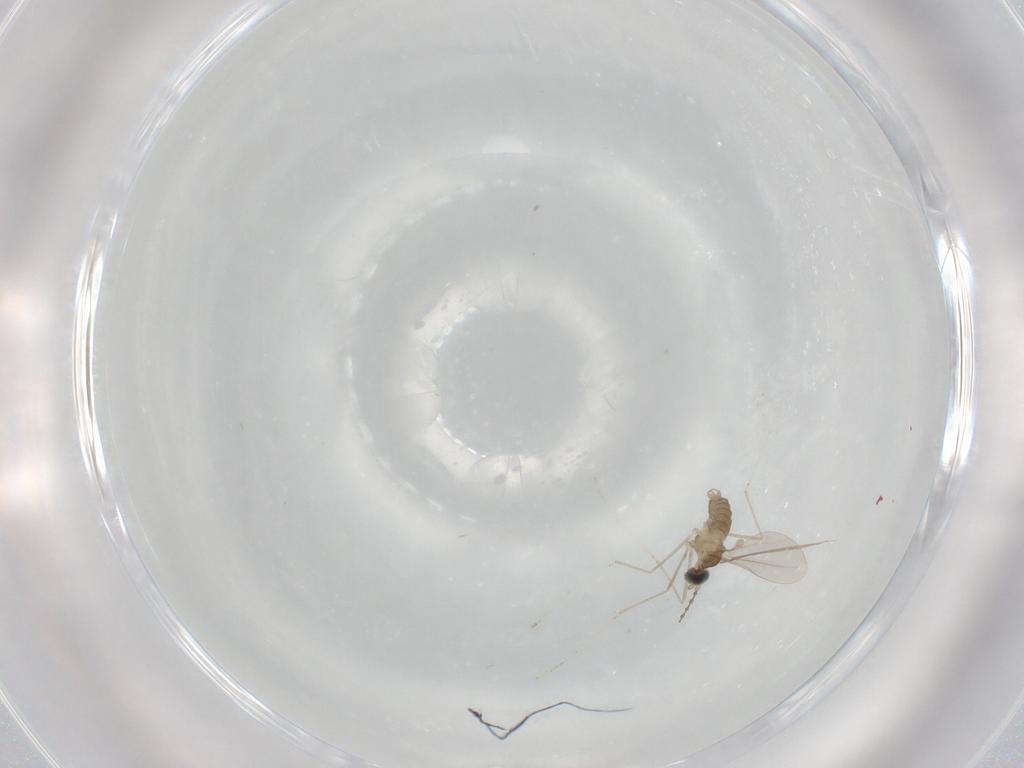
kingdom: Animalia
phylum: Arthropoda
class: Insecta
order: Diptera
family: Cecidomyiidae
